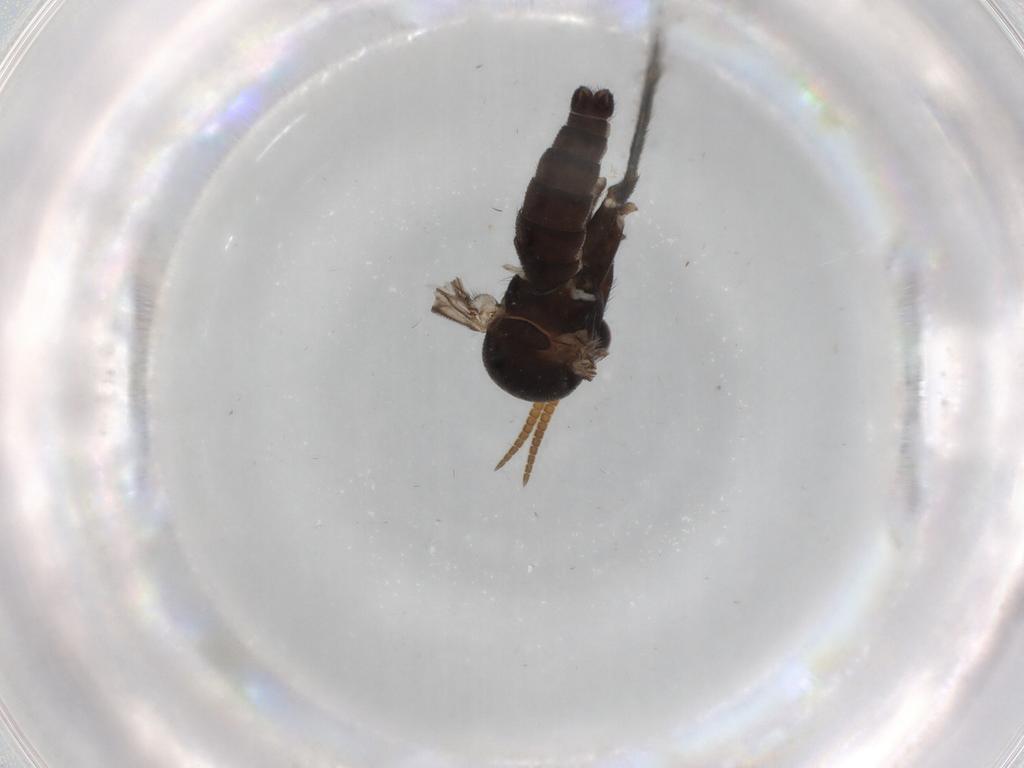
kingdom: Animalia
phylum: Arthropoda
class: Insecta
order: Diptera
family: Chironomidae
